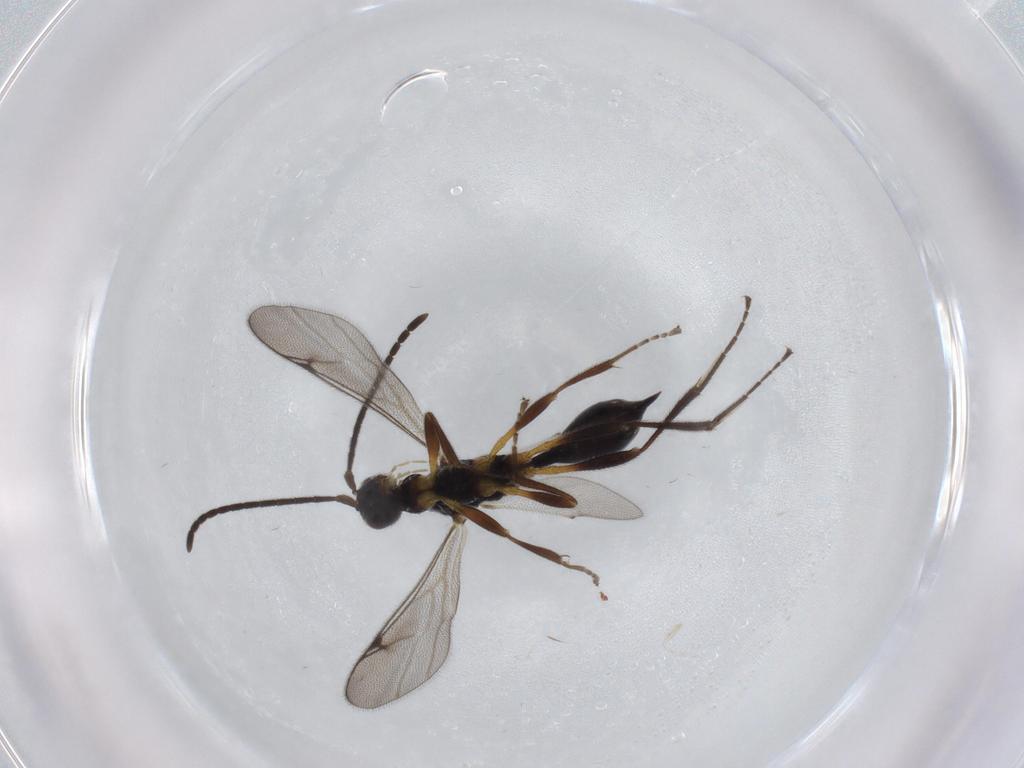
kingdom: Animalia
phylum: Arthropoda
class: Insecta
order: Hymenoptera
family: Proctotrupidae
